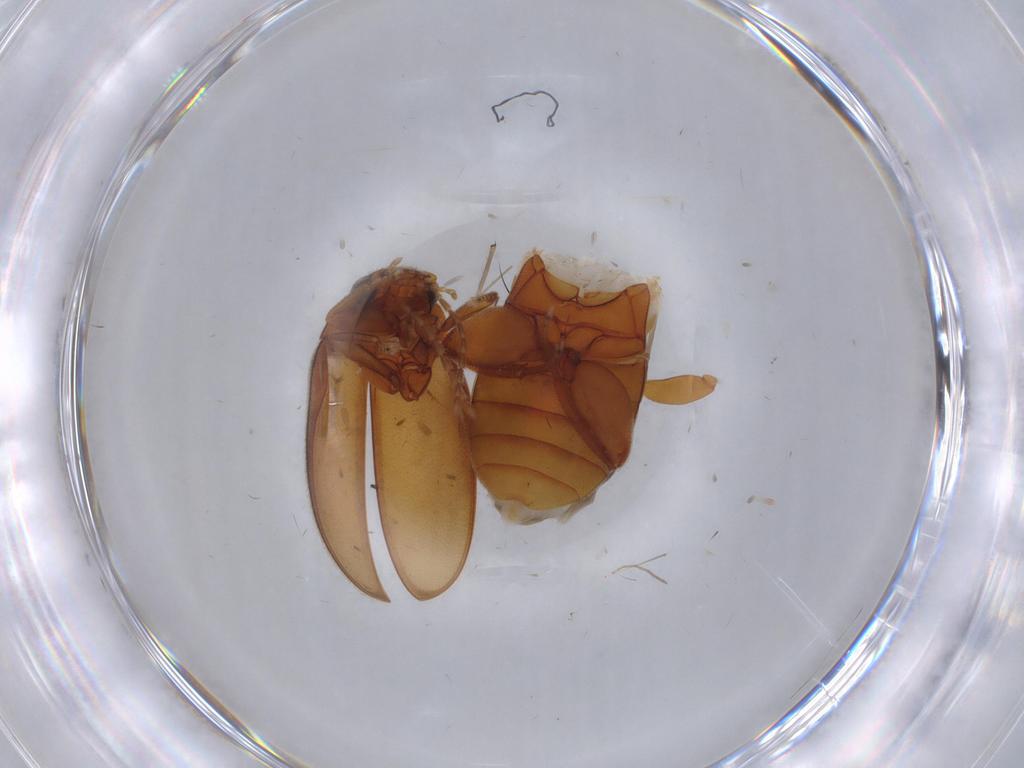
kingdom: Animalia
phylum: Arthropoda
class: Insecta
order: Coleoptera
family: Scirtidae
